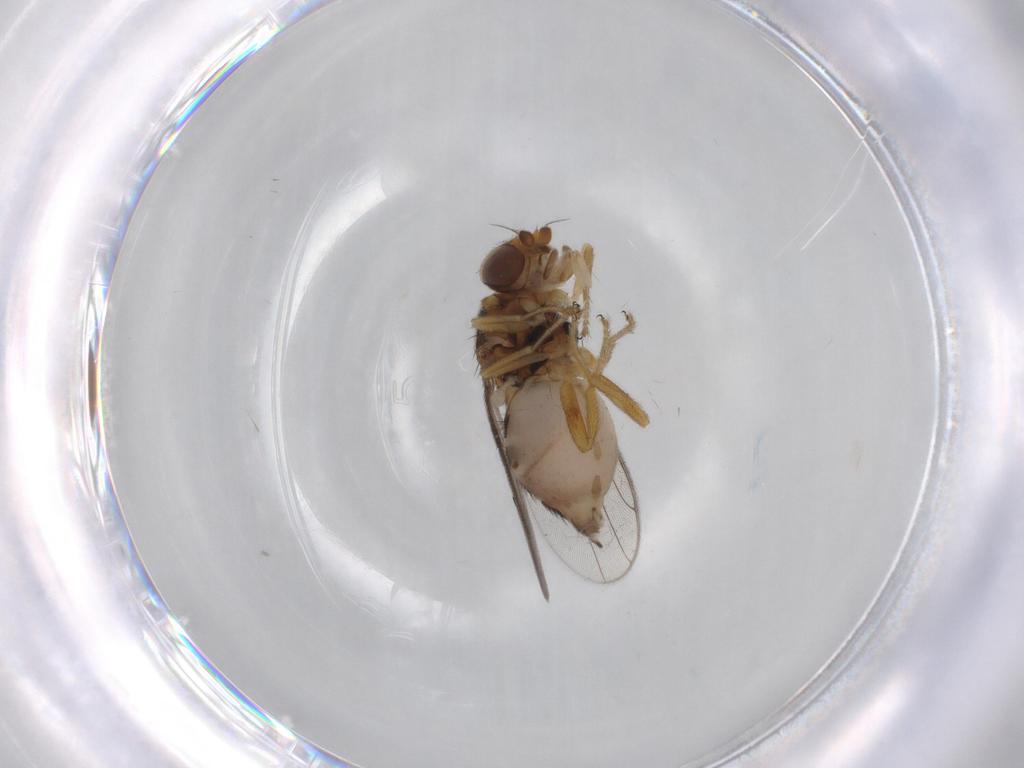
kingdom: Animalia
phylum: Arthropoda
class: Insecta
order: Diptera
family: Chloropidae
